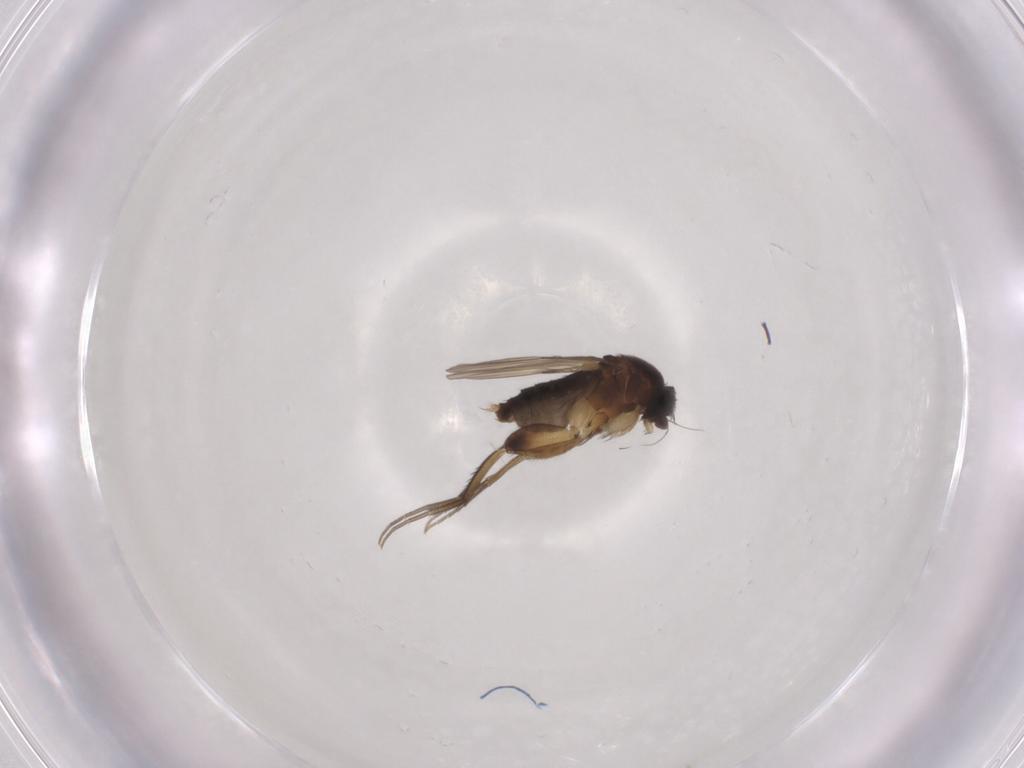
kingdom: Animalia
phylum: Arthropoda
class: Insecta
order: Diptera
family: Phoridae
